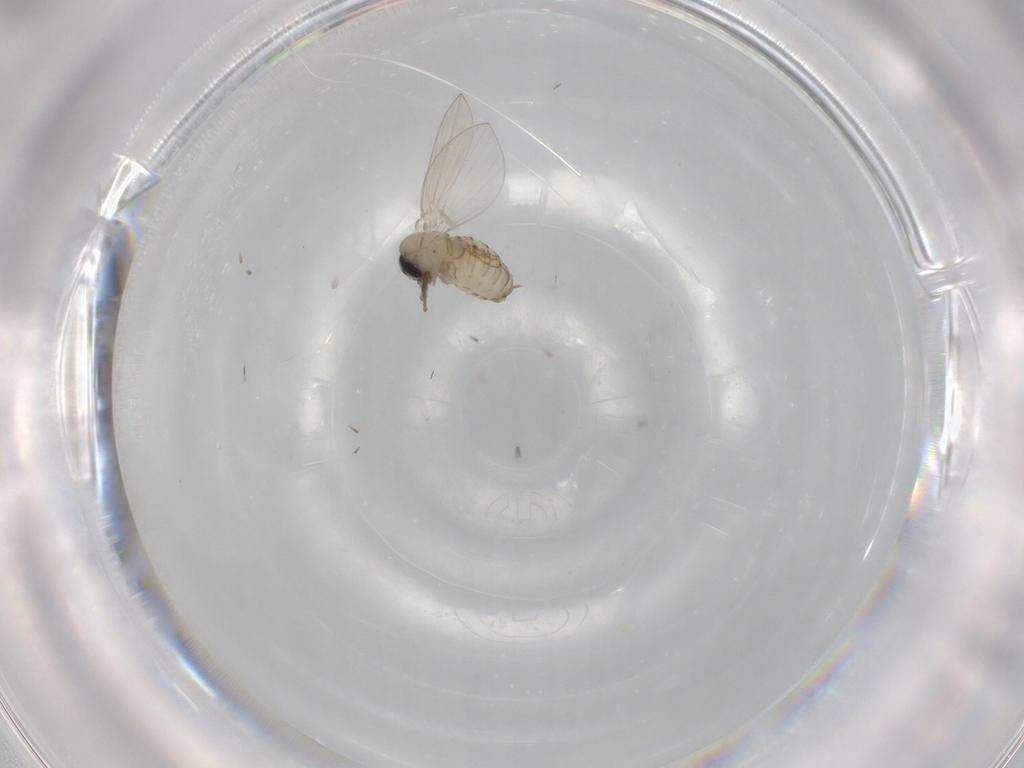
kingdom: Animalia
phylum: Arthropoda
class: Insecta
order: Diptera
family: Psychodidae
